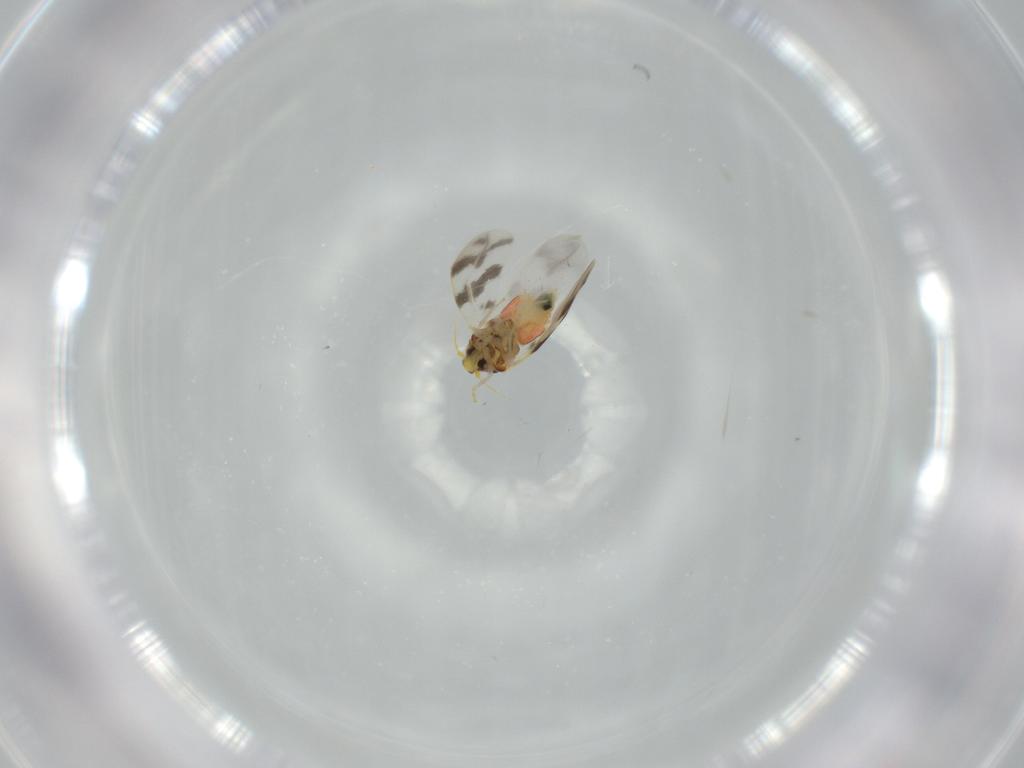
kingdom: Animalia
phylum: Arthropoda
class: Insecta
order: Hemiptera
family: Aleyrodidae
